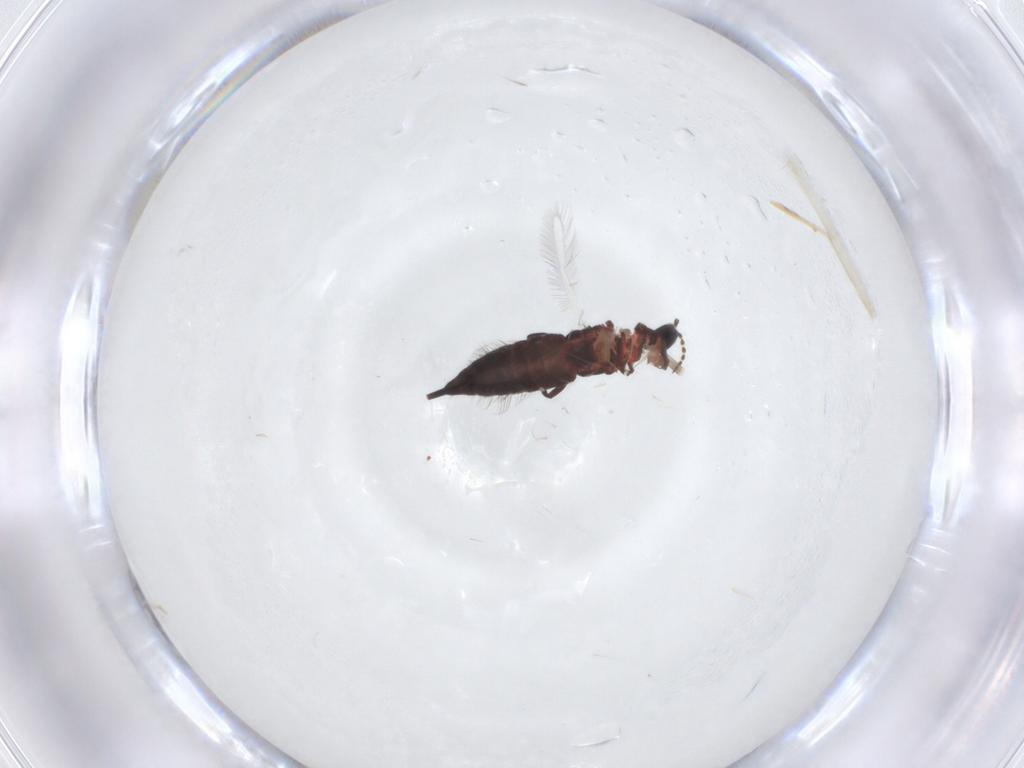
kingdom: Animalia
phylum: Arthropoda
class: Insecta
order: Thysanoptera
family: Phlaeothripidae
